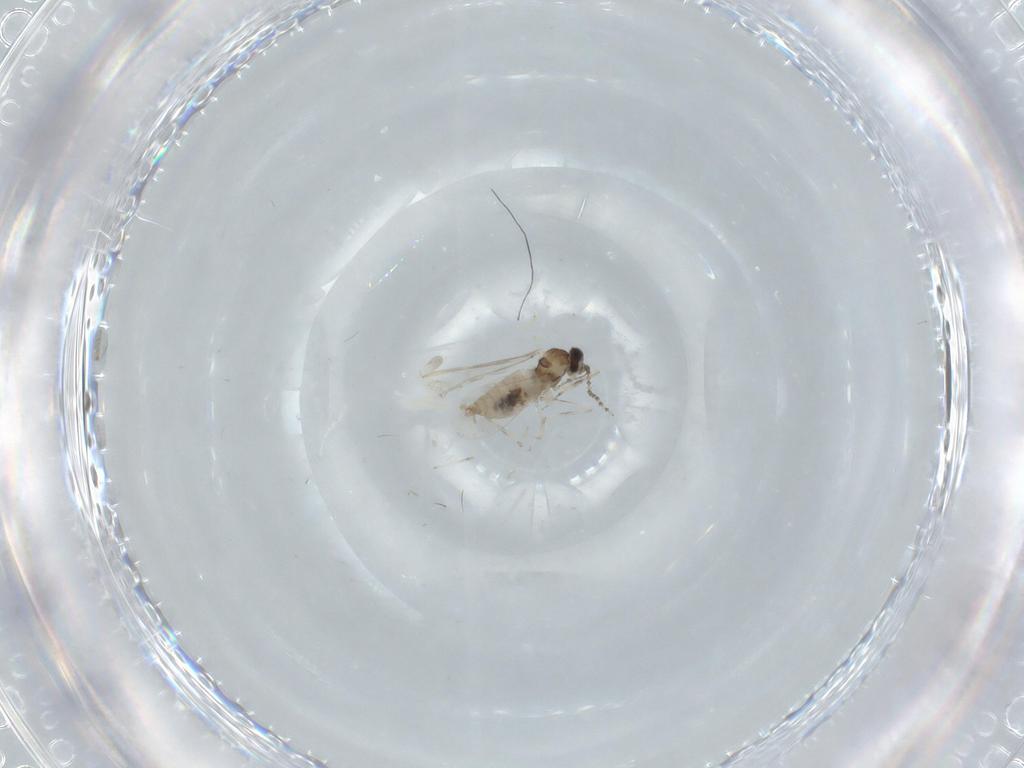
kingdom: Animalia
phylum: Arthropoda
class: Insecta
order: Diptera
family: Cecidomyiidae
